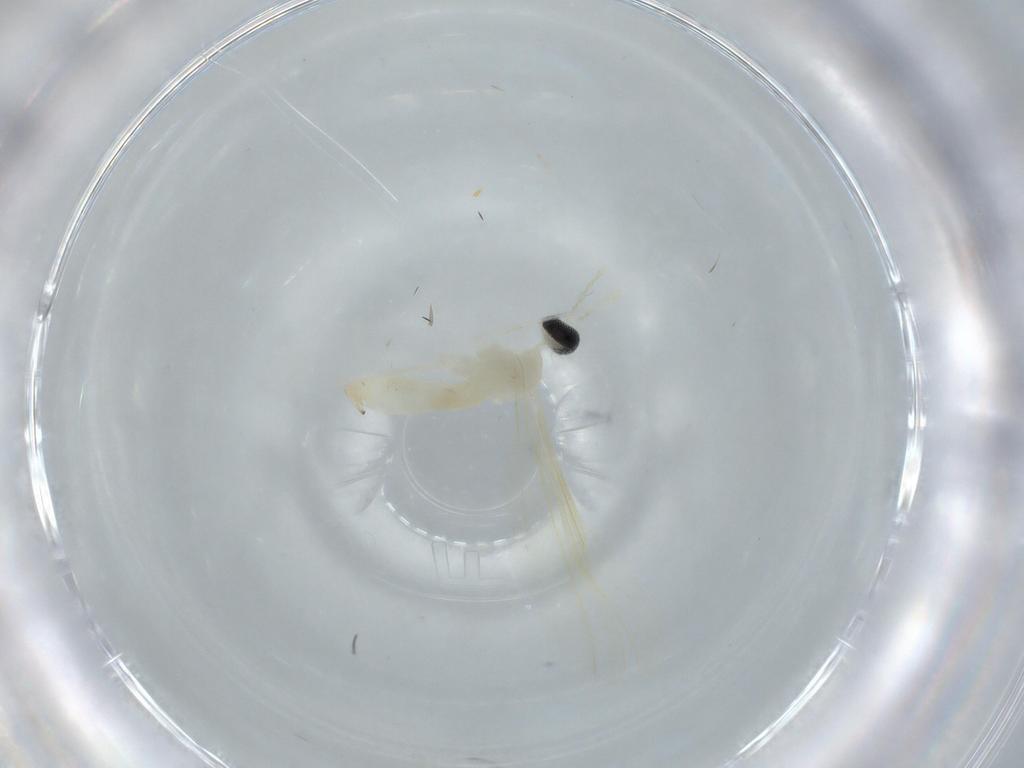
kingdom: Animalia
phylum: Arthropoda
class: Insecta
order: Diptera
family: Cecidomyiidae
